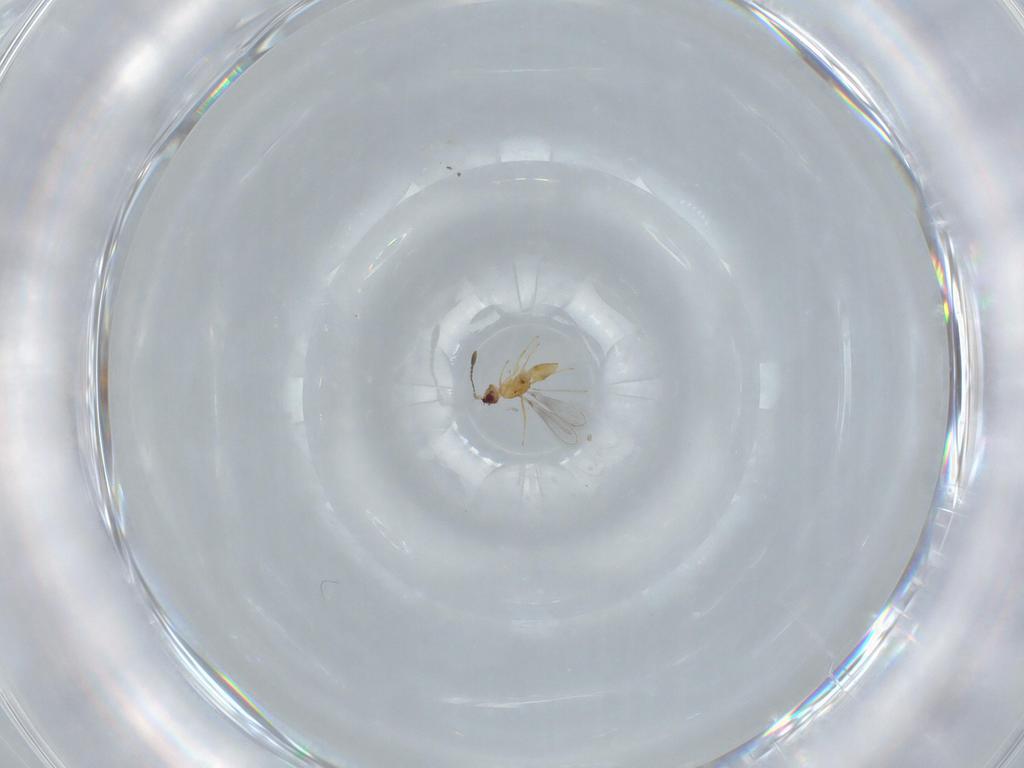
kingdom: Animalia
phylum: Arthropoda
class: Insecta
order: Hymenoptera
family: Mymaridae
